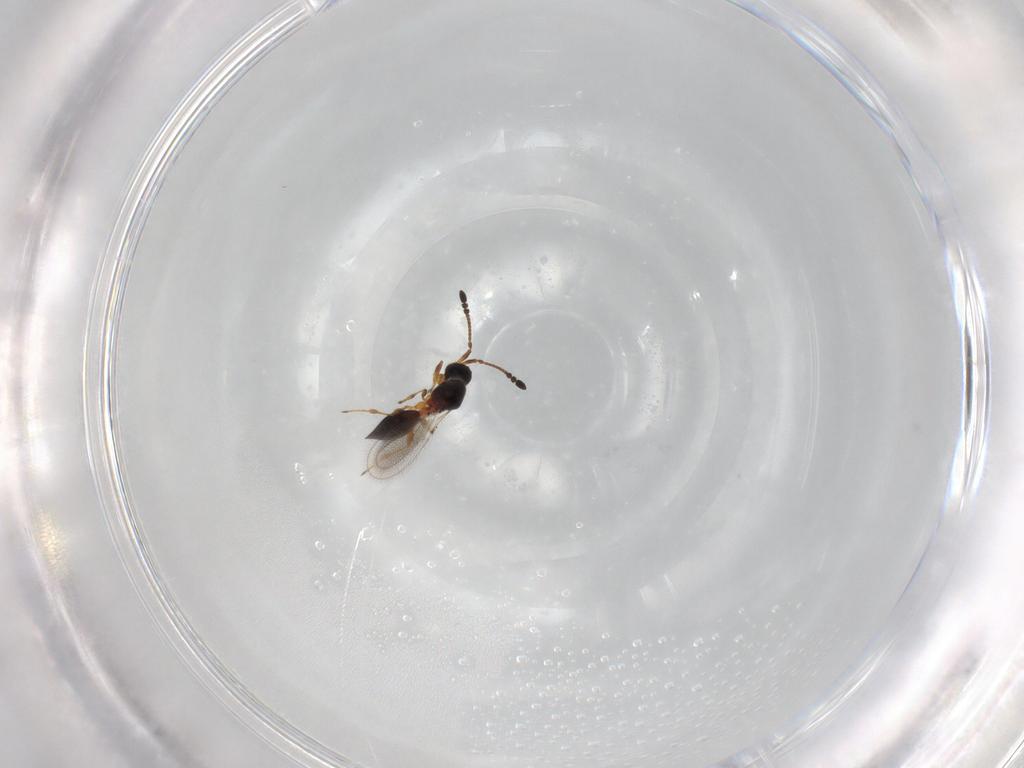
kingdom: Animalia
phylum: Arthropoda
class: Insecta
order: Hymenoptera
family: Diapriidae
